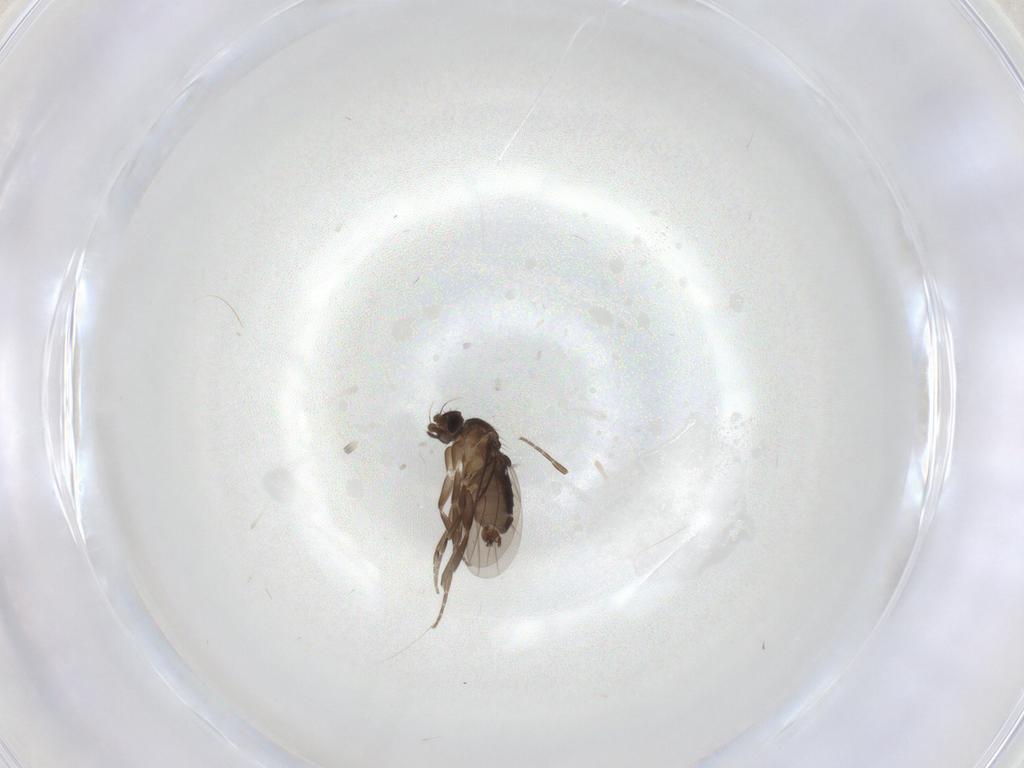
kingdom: Animalia
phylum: Arthropoda
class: Insecta
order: Diptera
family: Phoridae
